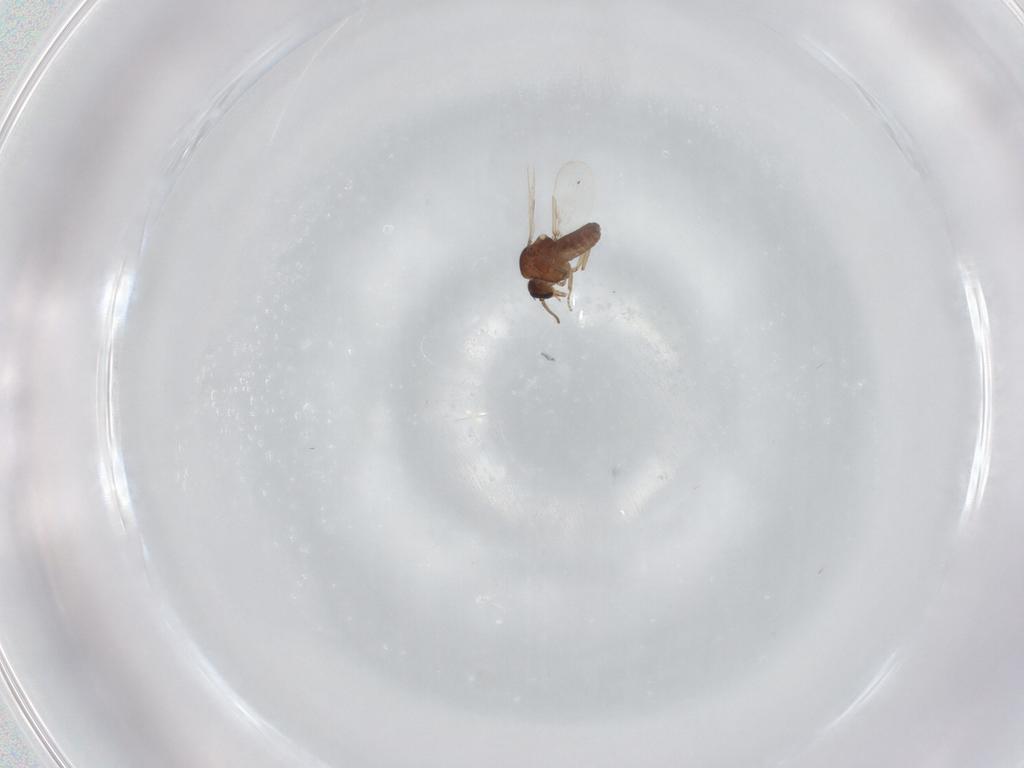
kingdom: Animalia
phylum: Arthropoda
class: Insecta
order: Diptera
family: Ceratopogonidae
